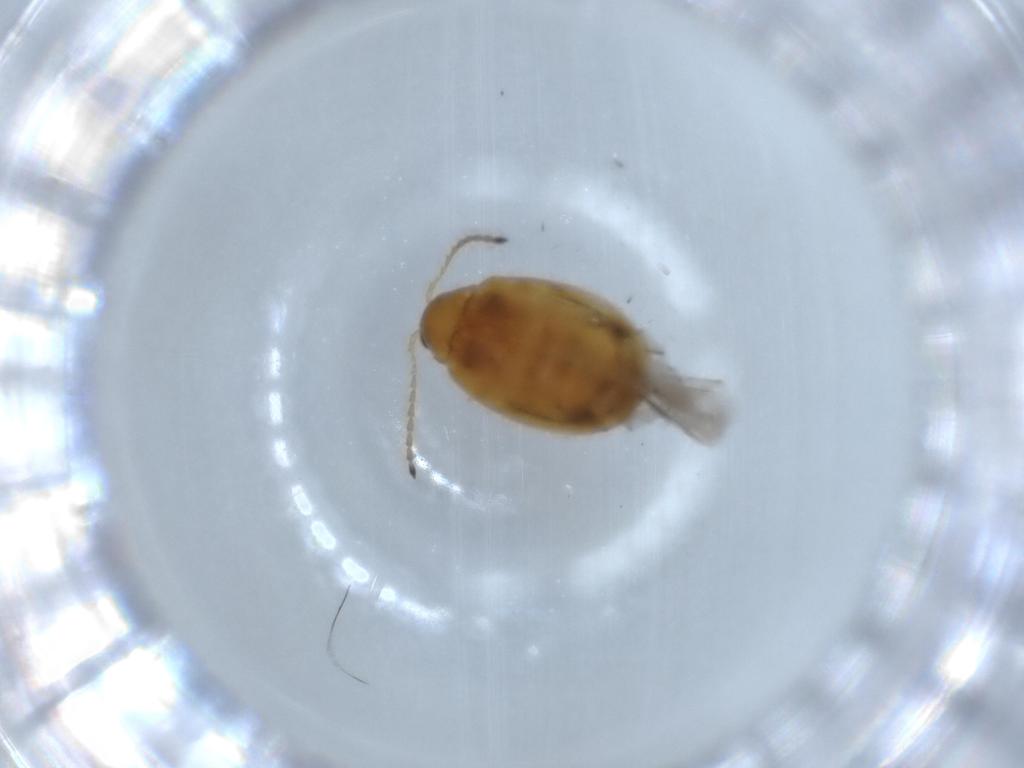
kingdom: Animalia
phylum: Arthropoda
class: Insecta
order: Coleoptera
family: Chrysomelidae
